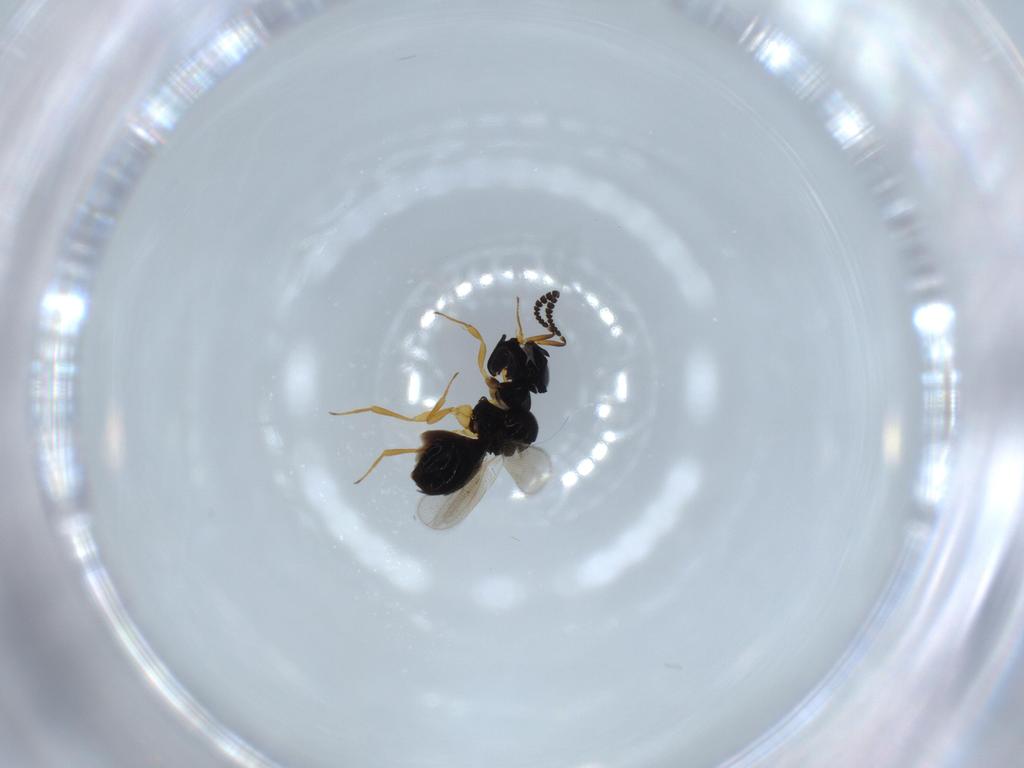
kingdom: Animalia
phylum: Arthropoda
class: Insecta
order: Hymenoptera
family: Scelionidae
